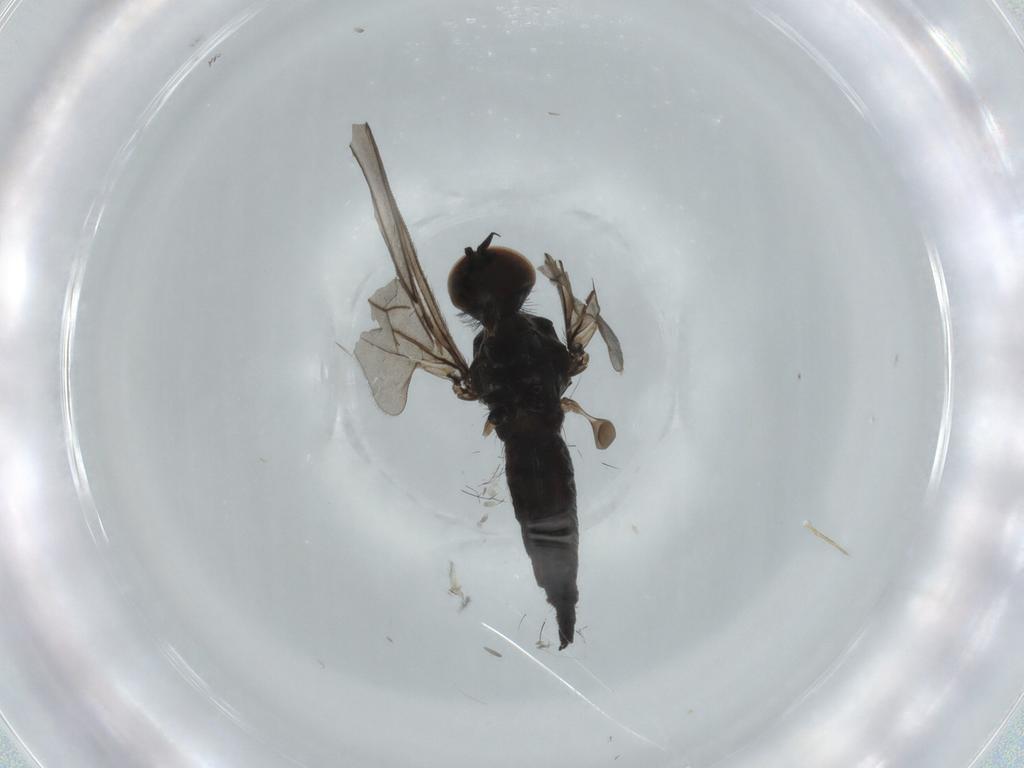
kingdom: Animalia
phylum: Arthropoda
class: Insecta
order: Diptera
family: Hybotidae
